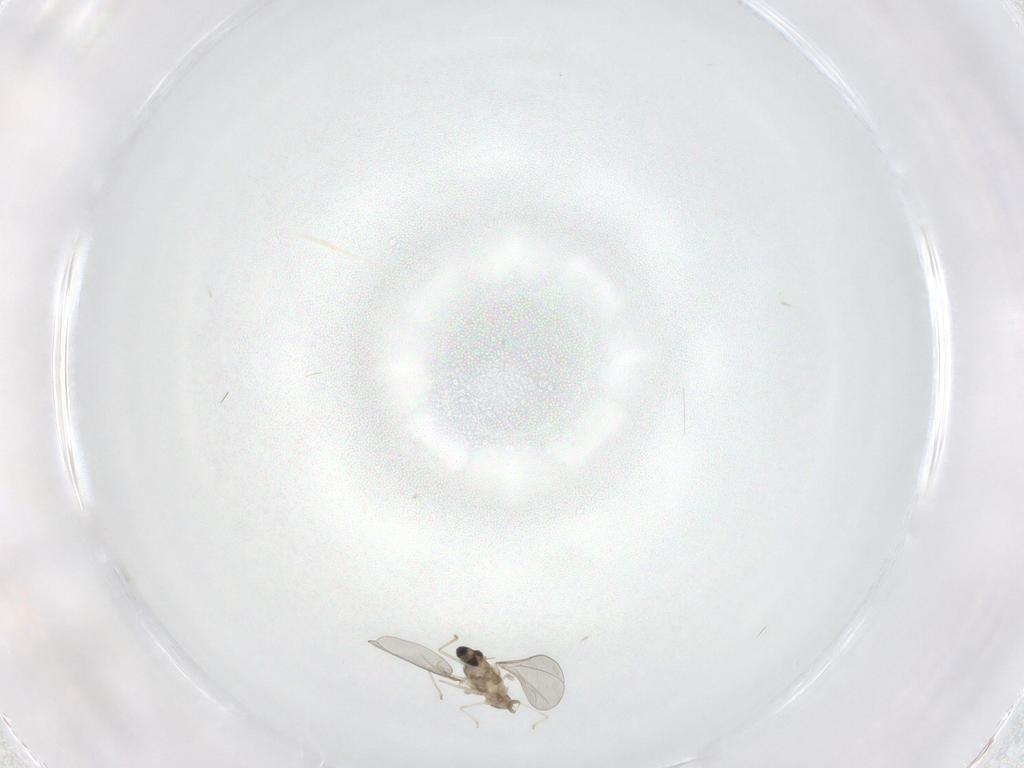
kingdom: Animalia
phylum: Arthropoda
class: Insecta
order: Diptera
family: Cecidomyiidae
